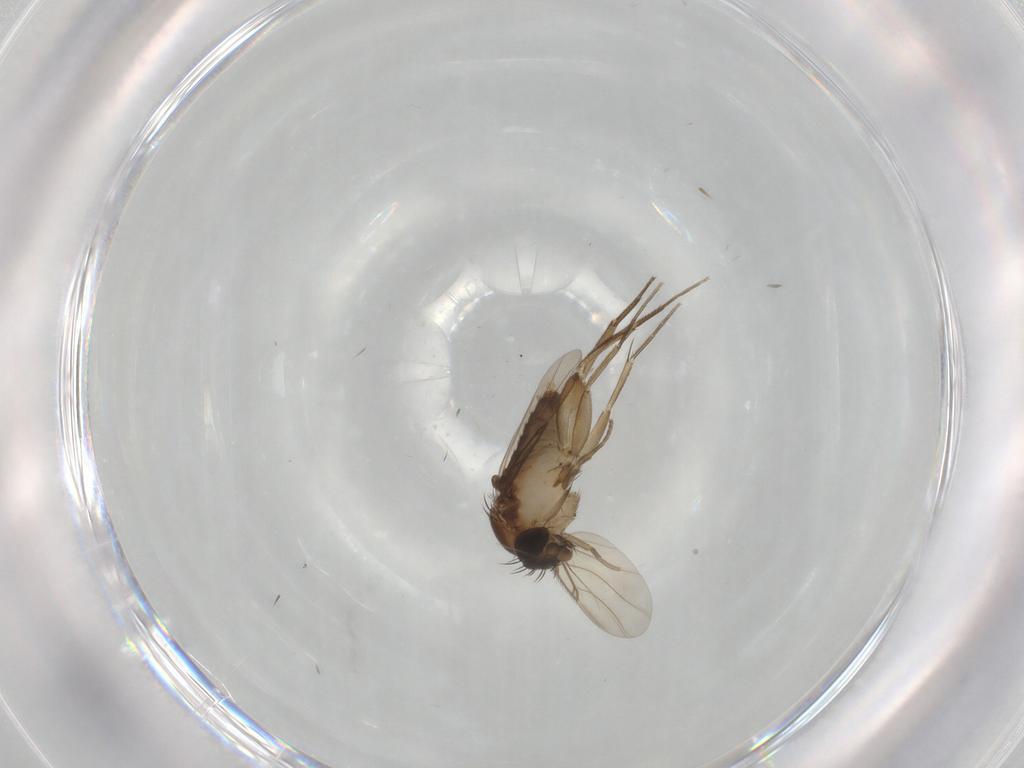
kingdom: Animalia
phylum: Arthropoda
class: Insecta
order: Diptera
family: Phoridae
